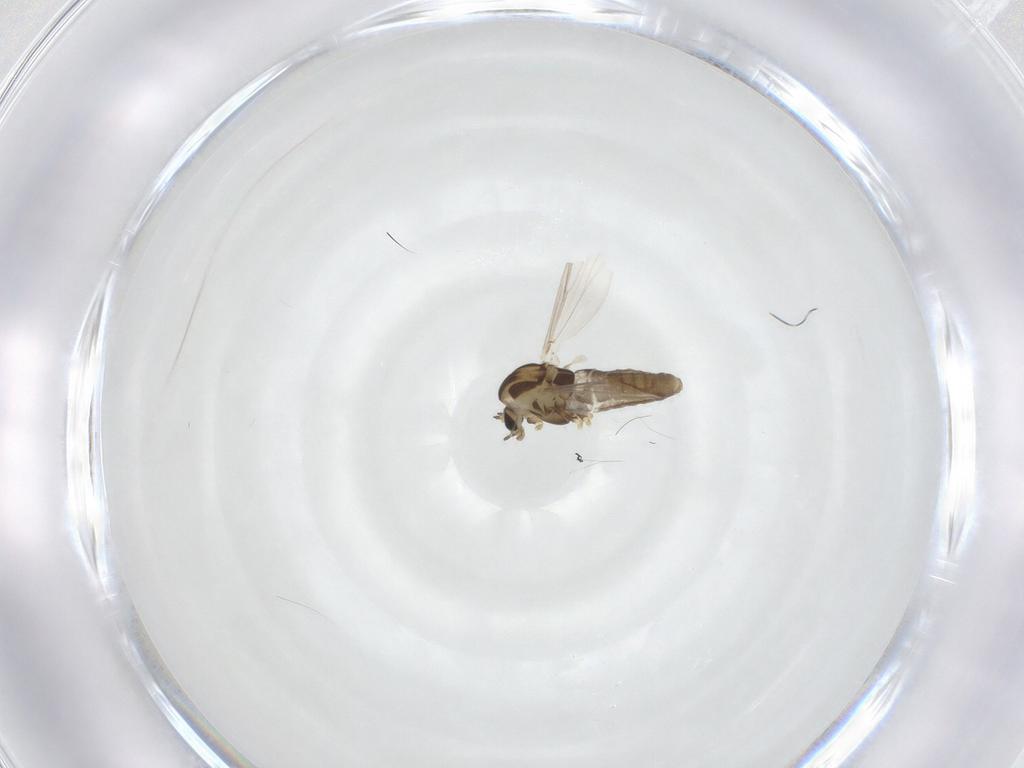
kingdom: Animalia
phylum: Arthropoda
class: Insecta
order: Diptera
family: Chironomidae
